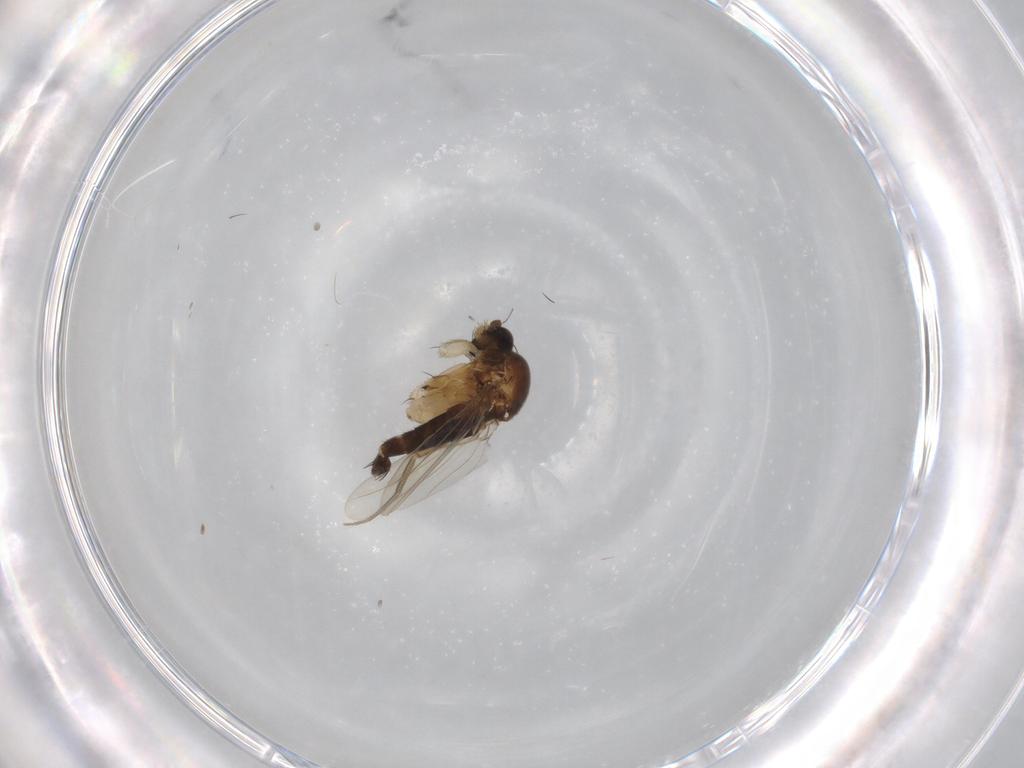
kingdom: Animalia
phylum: Arthropoda
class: Insecta
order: Diptera
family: Phoridae
